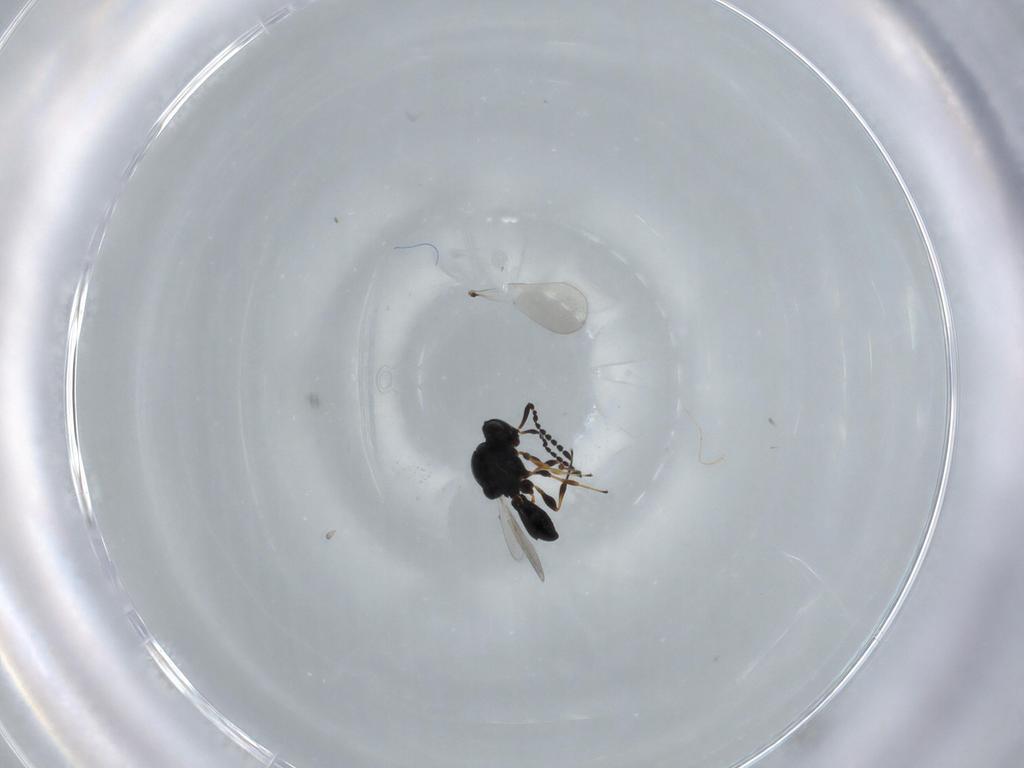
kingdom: Animalia
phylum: Arthropoda
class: Insecta
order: Hymenoptera
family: Platygastridae
